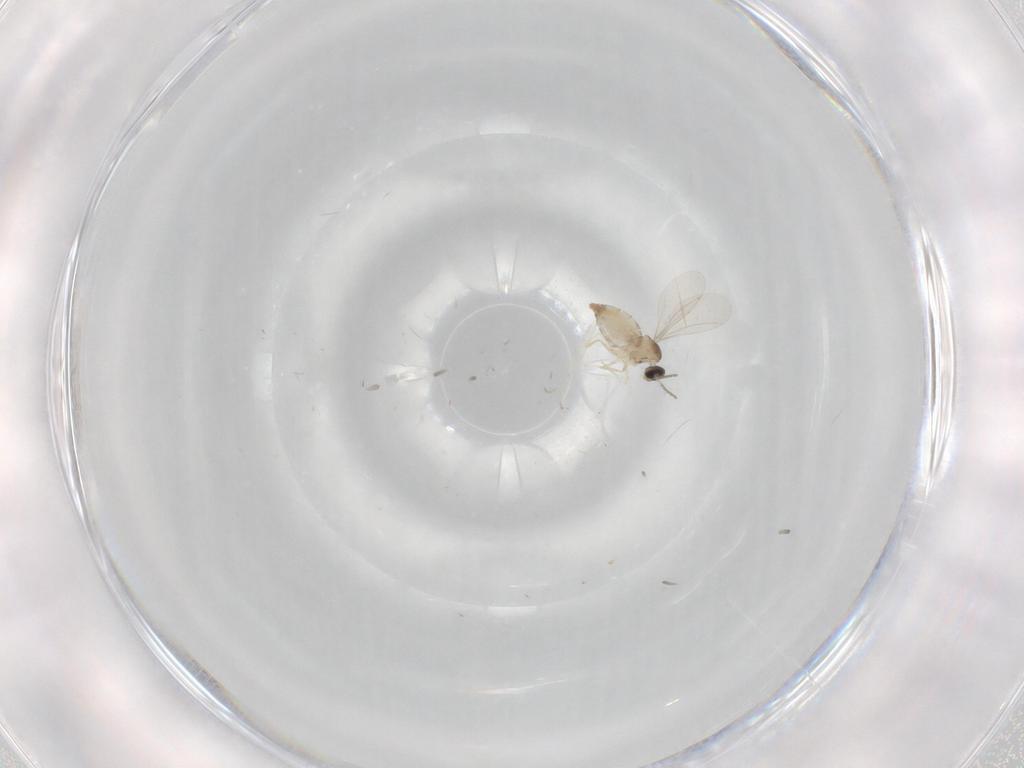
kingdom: Animalia
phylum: Arthropoda
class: Insecta
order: Diptera
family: Cecidomyiidae
